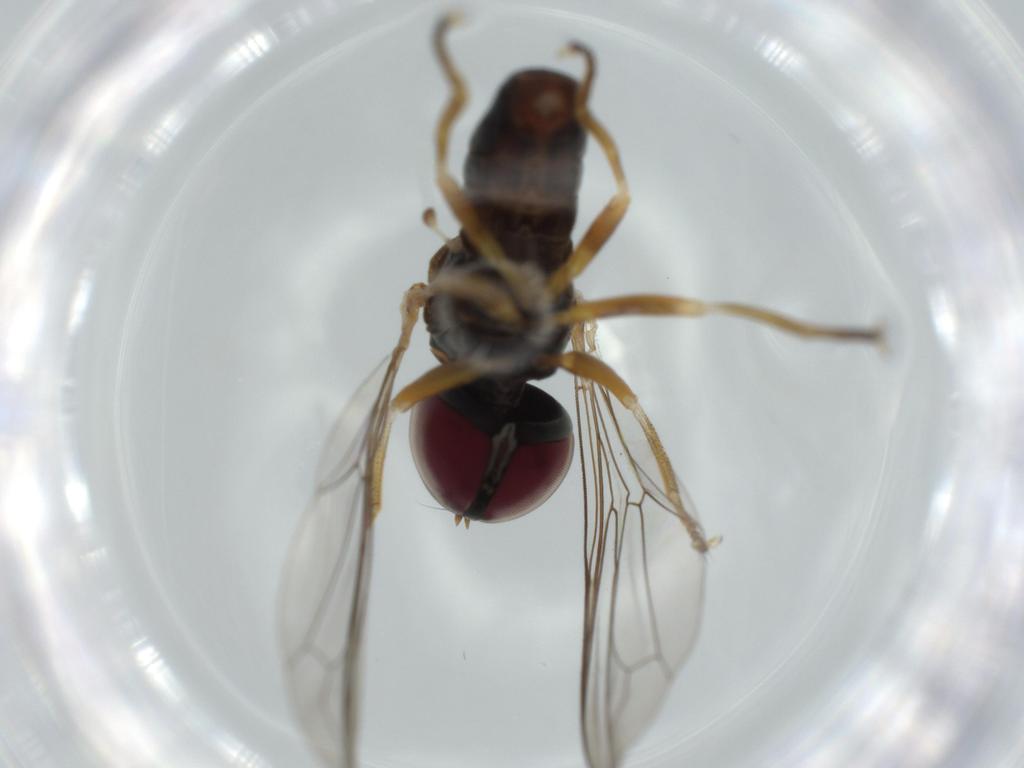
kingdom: Animalia
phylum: Arthropoda
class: Insecta
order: Diptera
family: Pipunculidae
